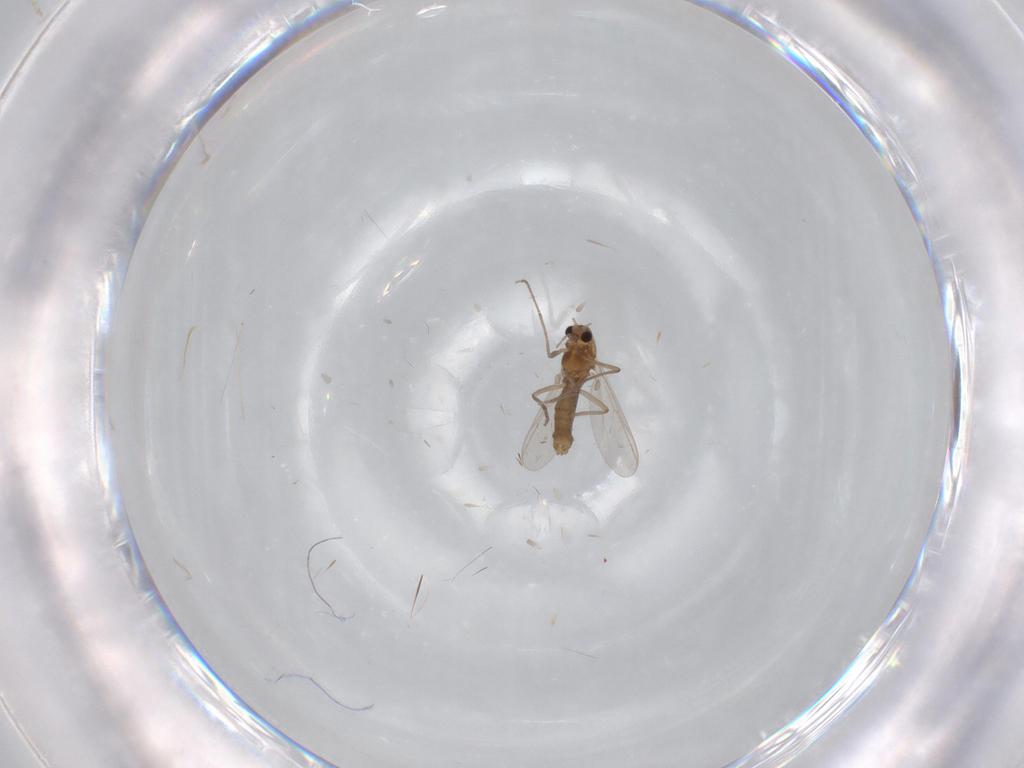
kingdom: Animalia
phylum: Arthropoda
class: Insecta
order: Diptera
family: Chironomidae
